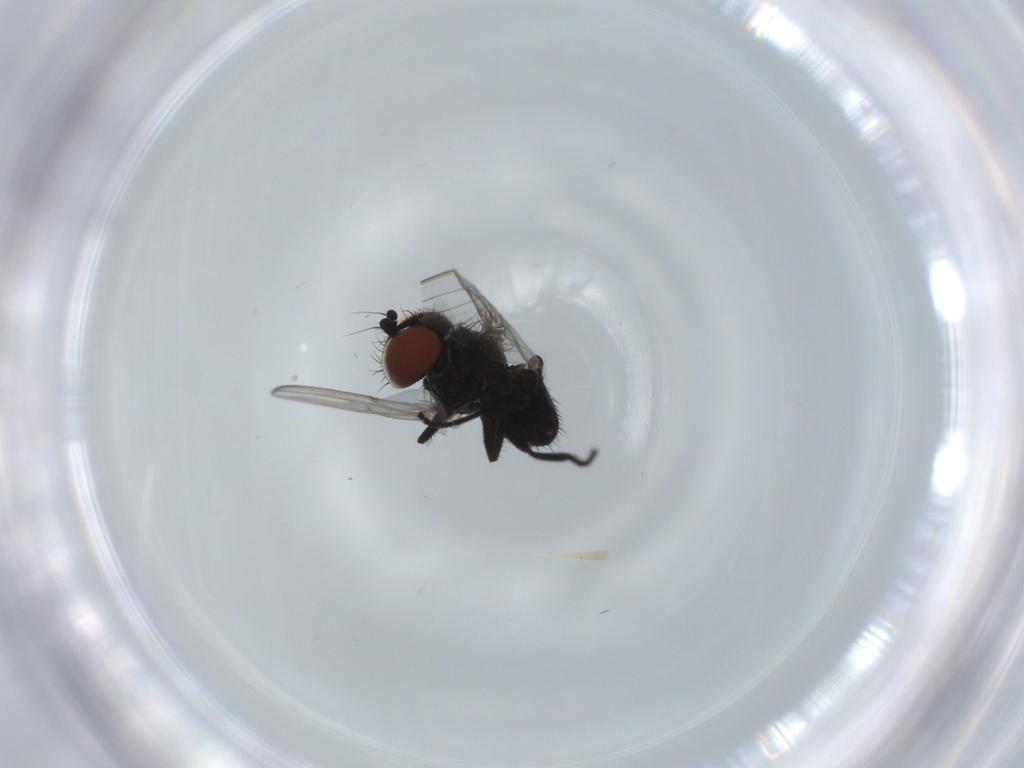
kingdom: Animalia
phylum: Arthropoda
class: Insecta
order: Diptera
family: Milichiidae
